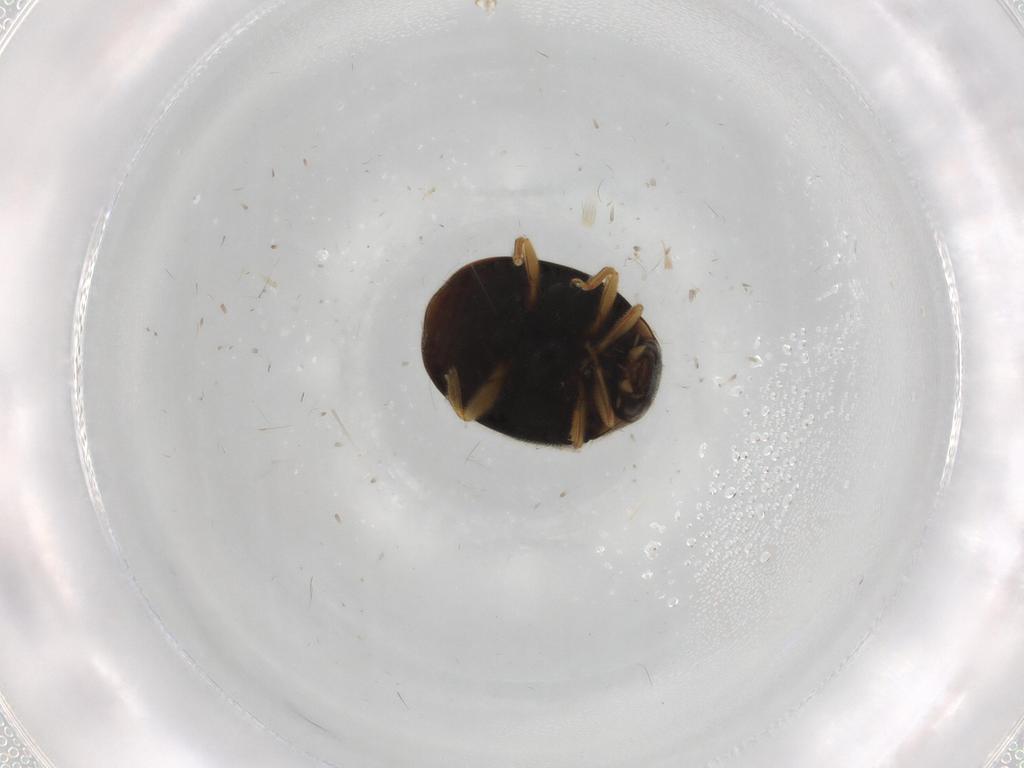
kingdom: Animalia
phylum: Arthropoda
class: Insecta
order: Coleoptera
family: Coccinellidae
